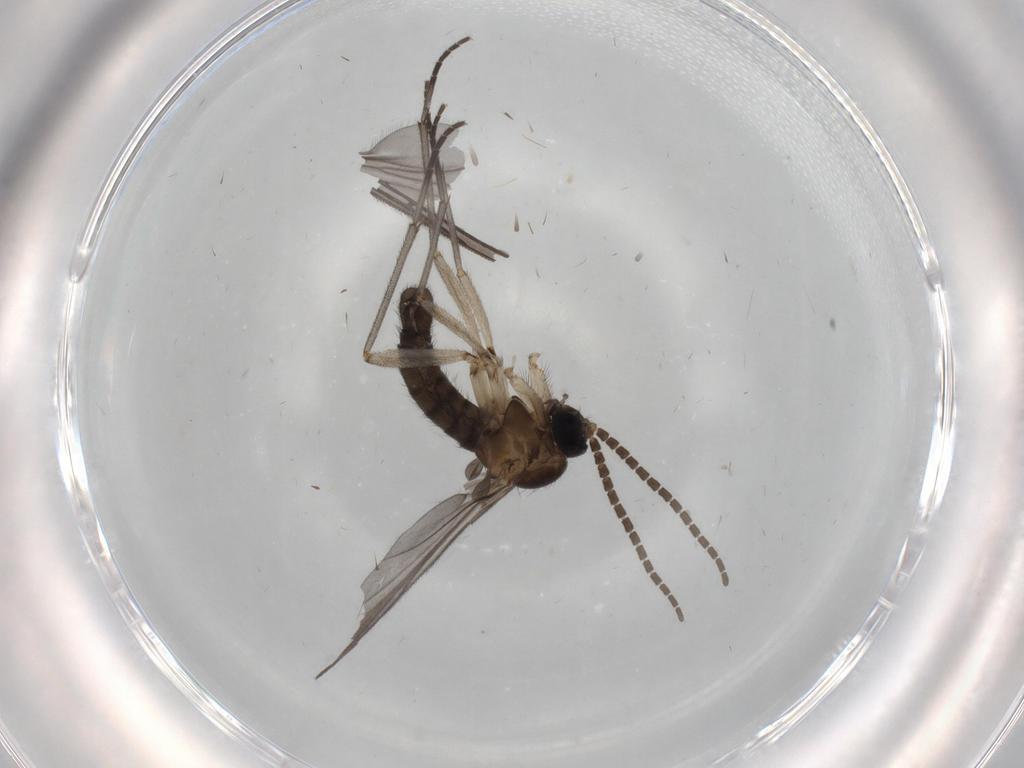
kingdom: Animalia
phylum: Arthropoda
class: Insecta
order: Diptera
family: Sciaridae
